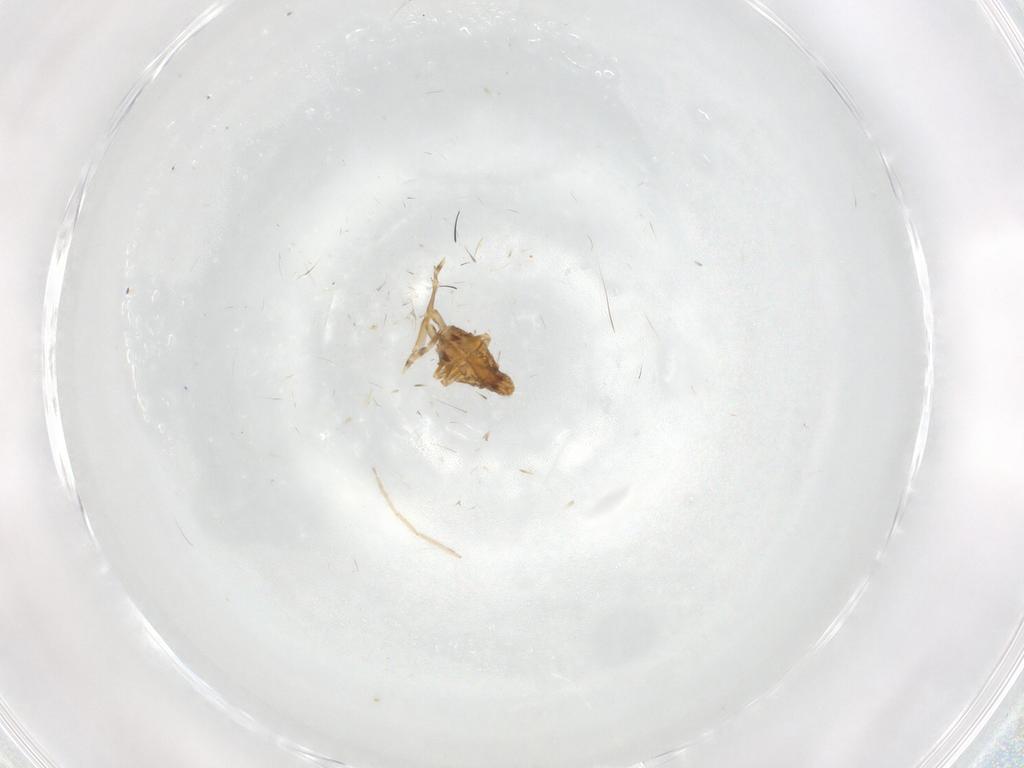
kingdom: Animalia
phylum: Arthropoda
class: Insecta
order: Hemiptera
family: Flatidae
